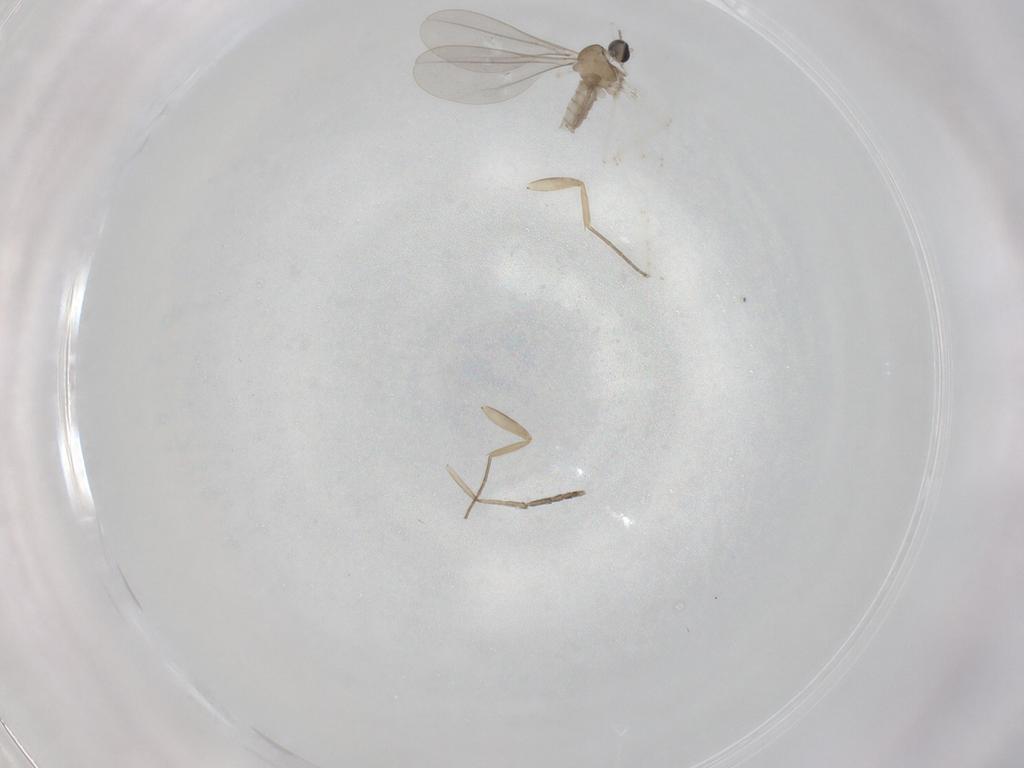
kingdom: Animalia
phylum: Arthropoda
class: Insecta
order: Diptera
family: Cecidomyiidae
